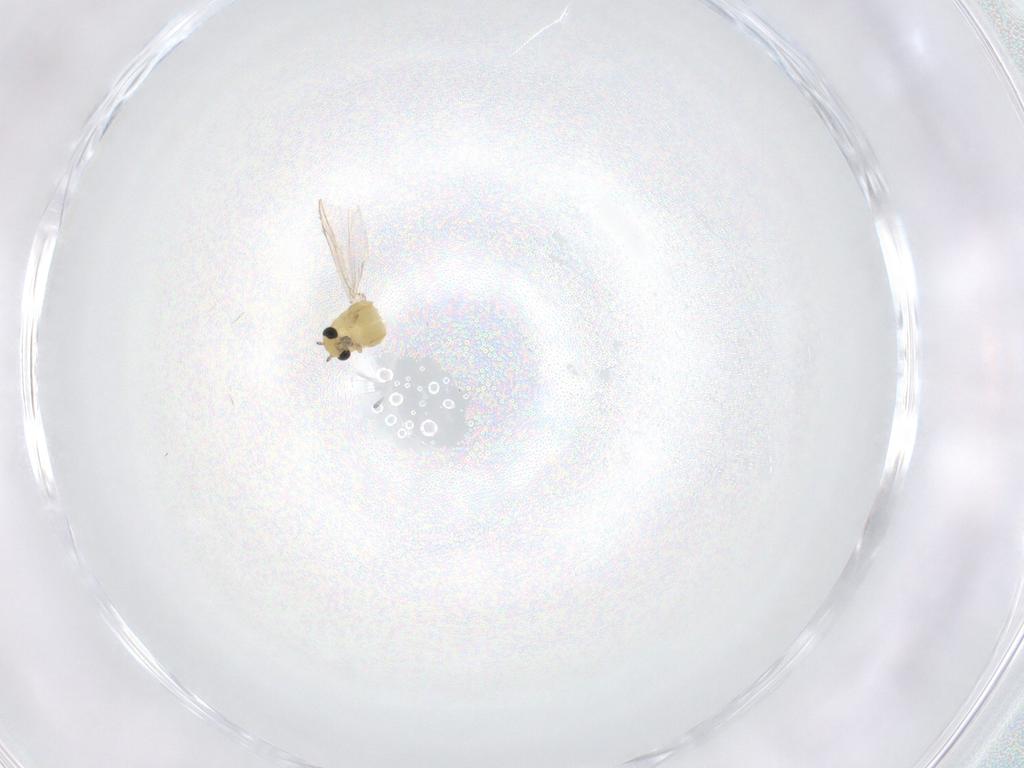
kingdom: Animalia
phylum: Arthropoda
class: Insecta
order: Diptera
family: Chironomidae
